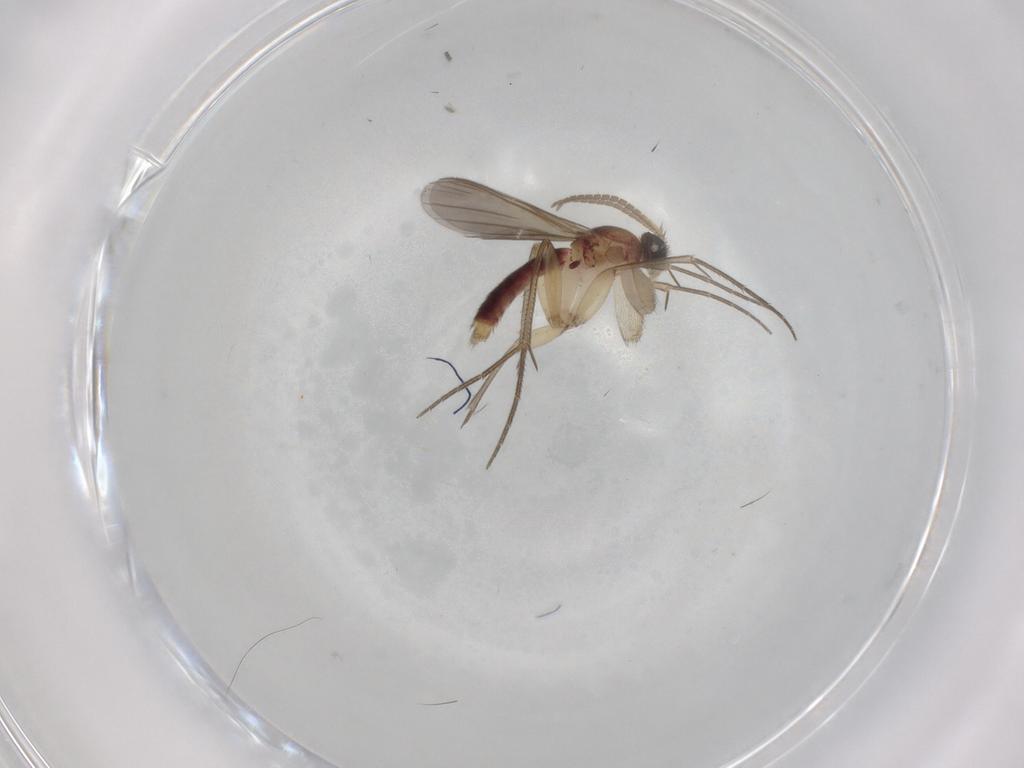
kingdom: Animalia
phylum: Arthropoda
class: Insecta
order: Diptera
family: Mycetophilidae
